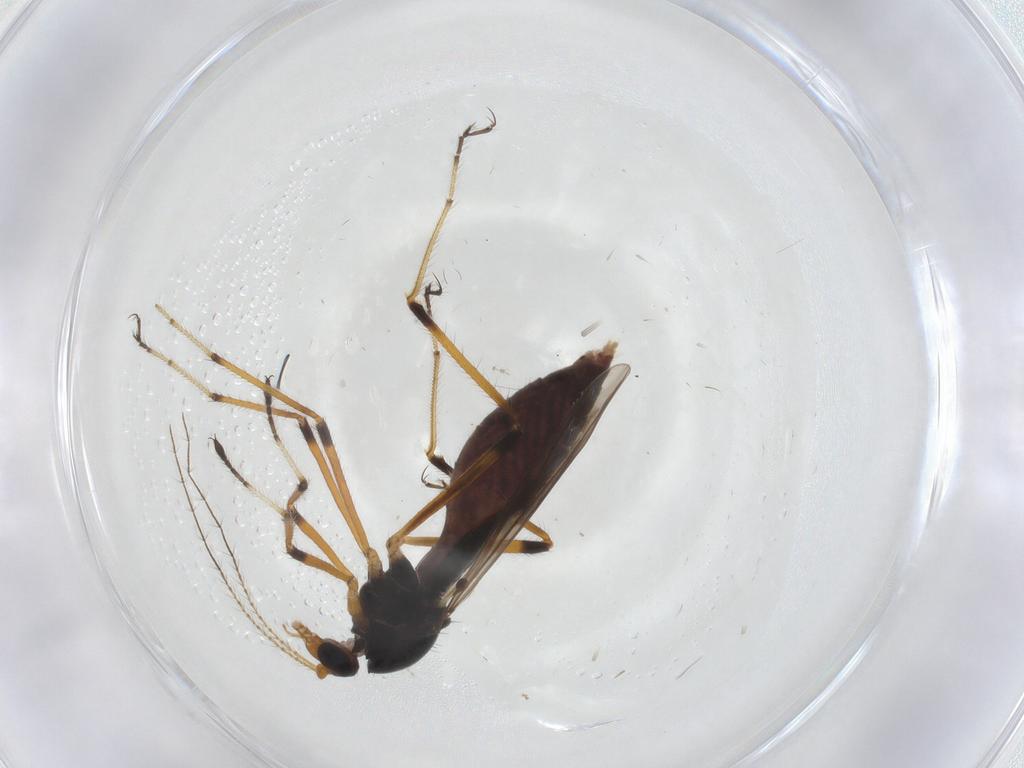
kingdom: Animalia
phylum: Arthropoda
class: Insecta
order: Diptera
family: Ceratopogonidae
